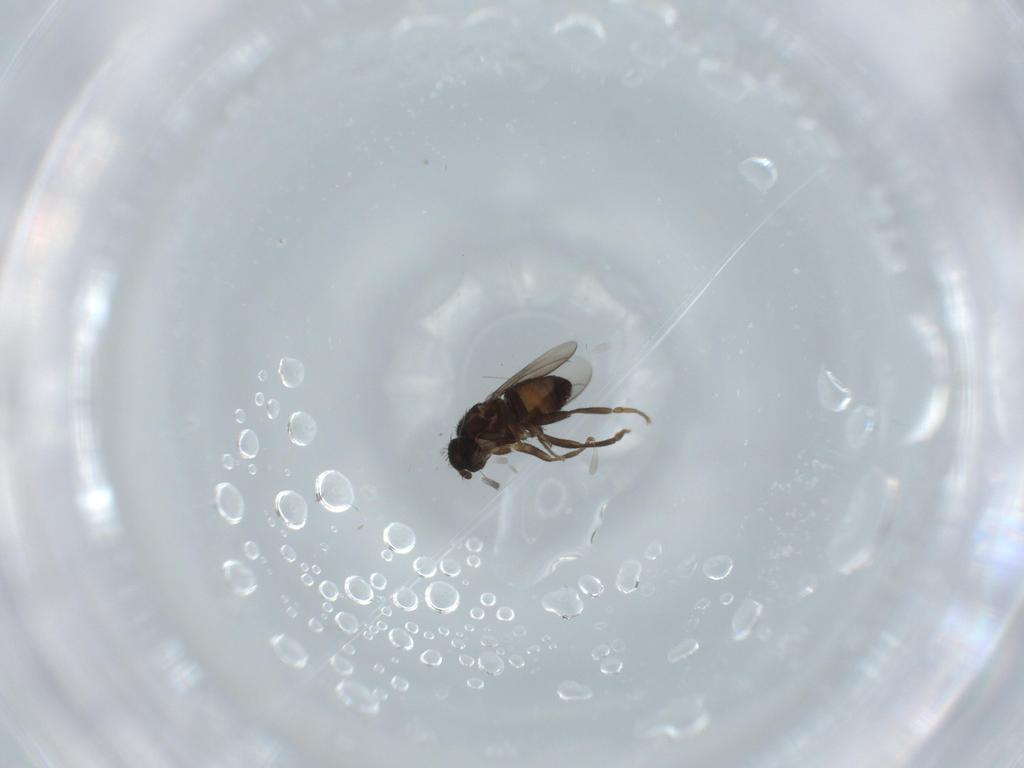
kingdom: Animalia
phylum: Arthropoda
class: Insecta
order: Diptera
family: Sphaeroceridae
